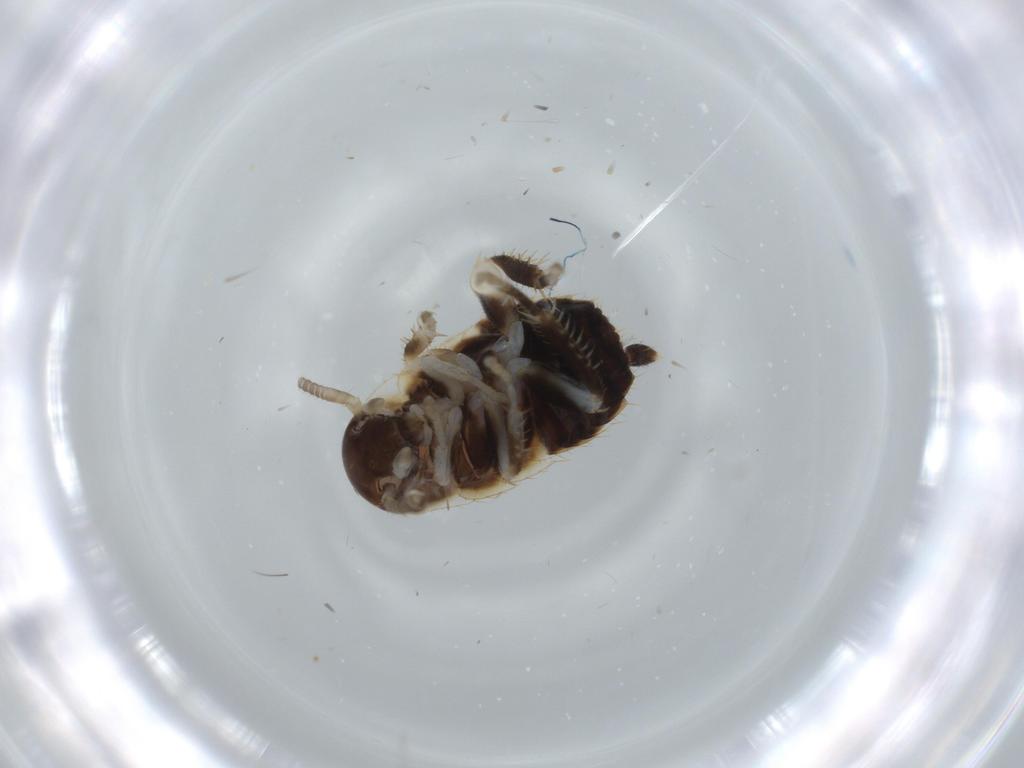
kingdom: Animalia
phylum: Arthropoda
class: Insecta
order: Blattodea
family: Ectobiidae
